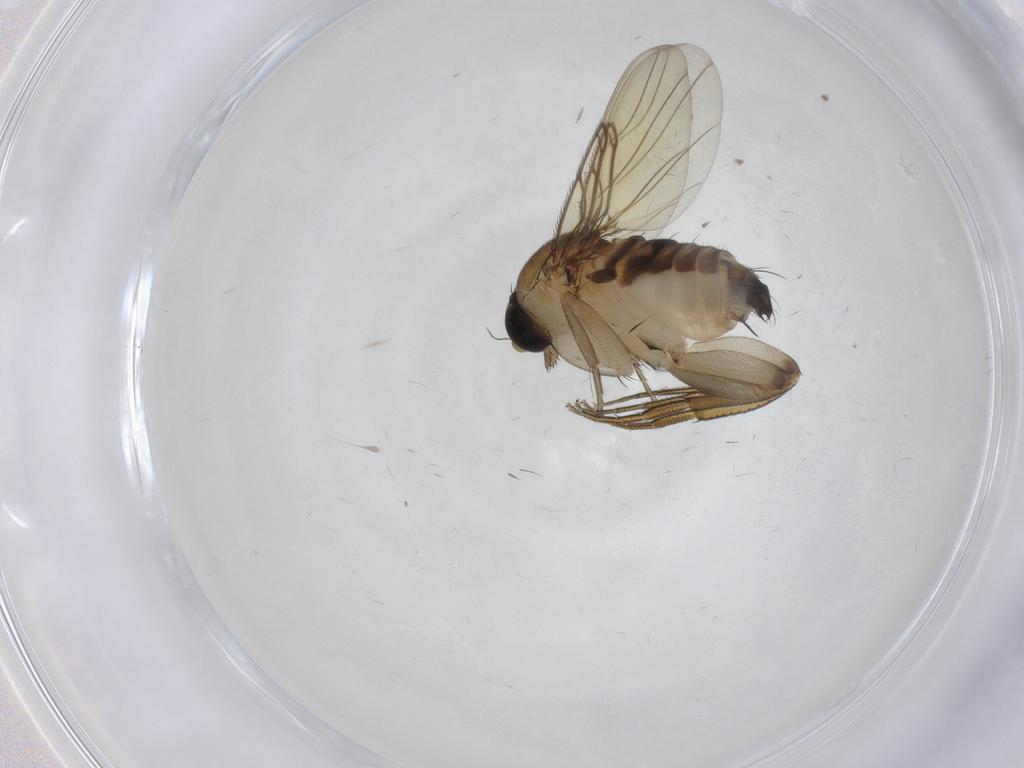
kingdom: Animalia
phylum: Arthropoda
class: Insecta
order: Diptera
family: Phoridae
